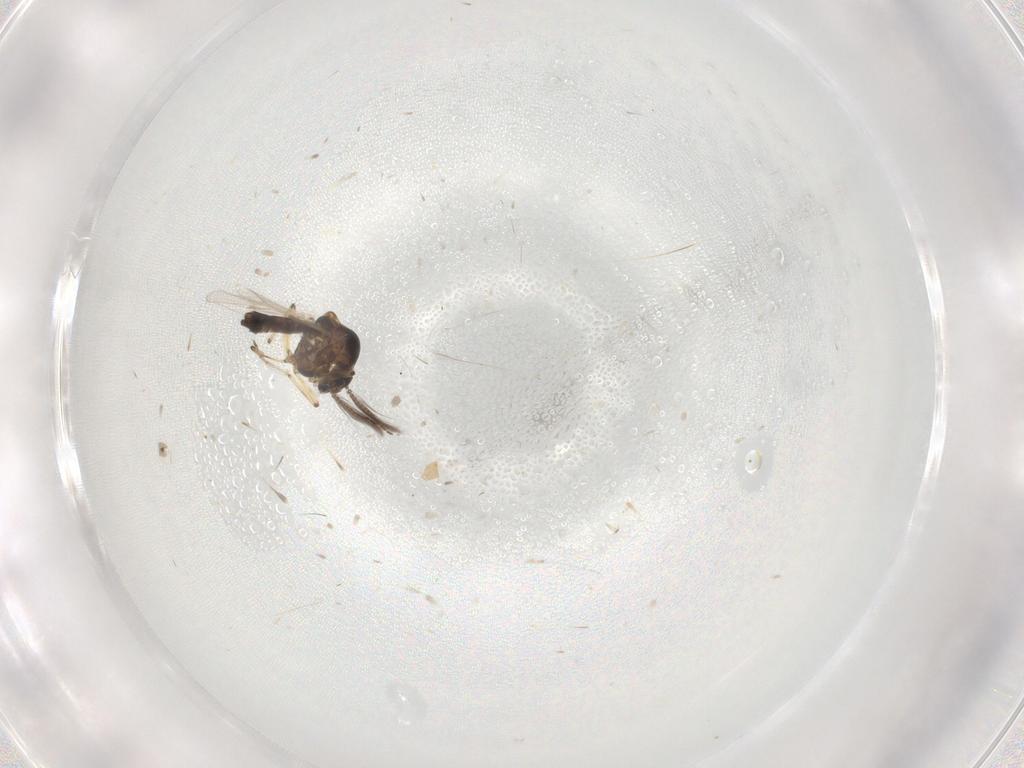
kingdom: Animalia
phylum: Arthropoda
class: Insecta
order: Diptera
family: Ceratopogonidae
